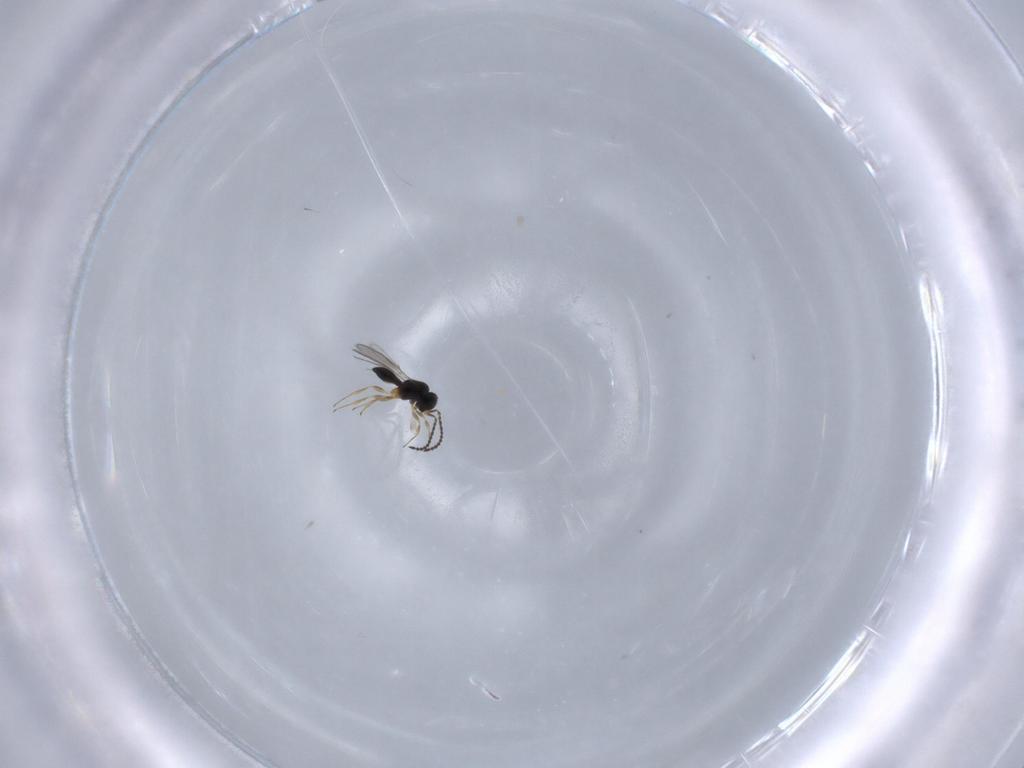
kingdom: Animalia
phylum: Arthropoda
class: Insecta
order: Hymenoptera
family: Scelionidae
